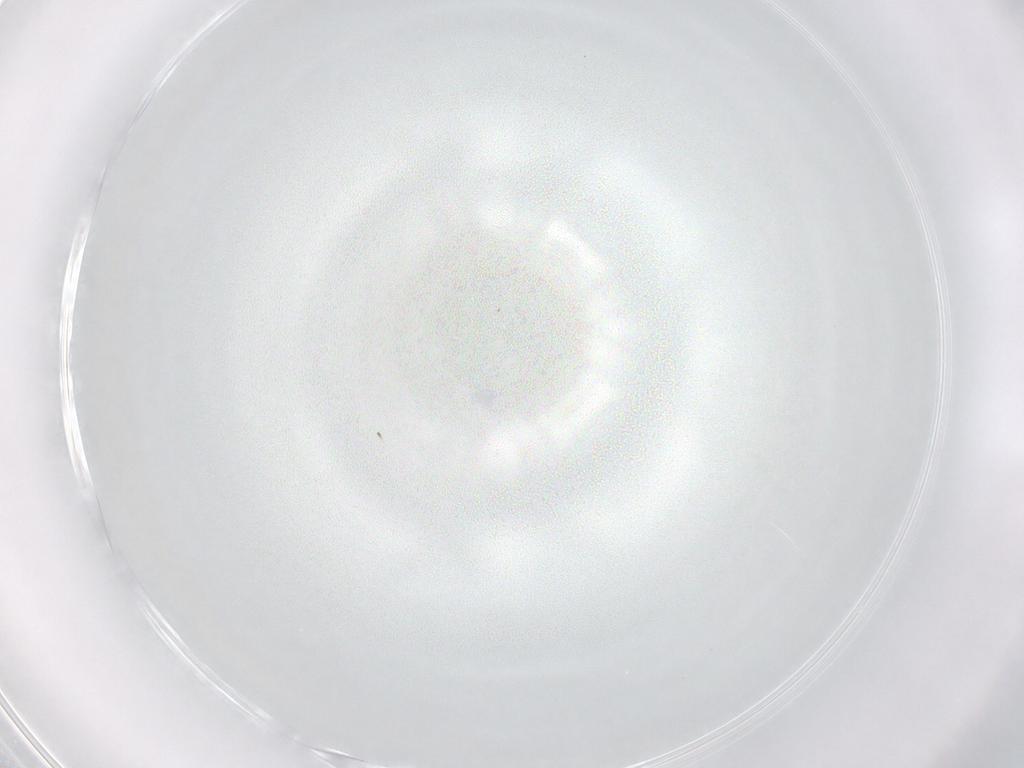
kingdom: Animalia
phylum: Arthropoda
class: Insecta
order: Hemiptera
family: Aphididae
